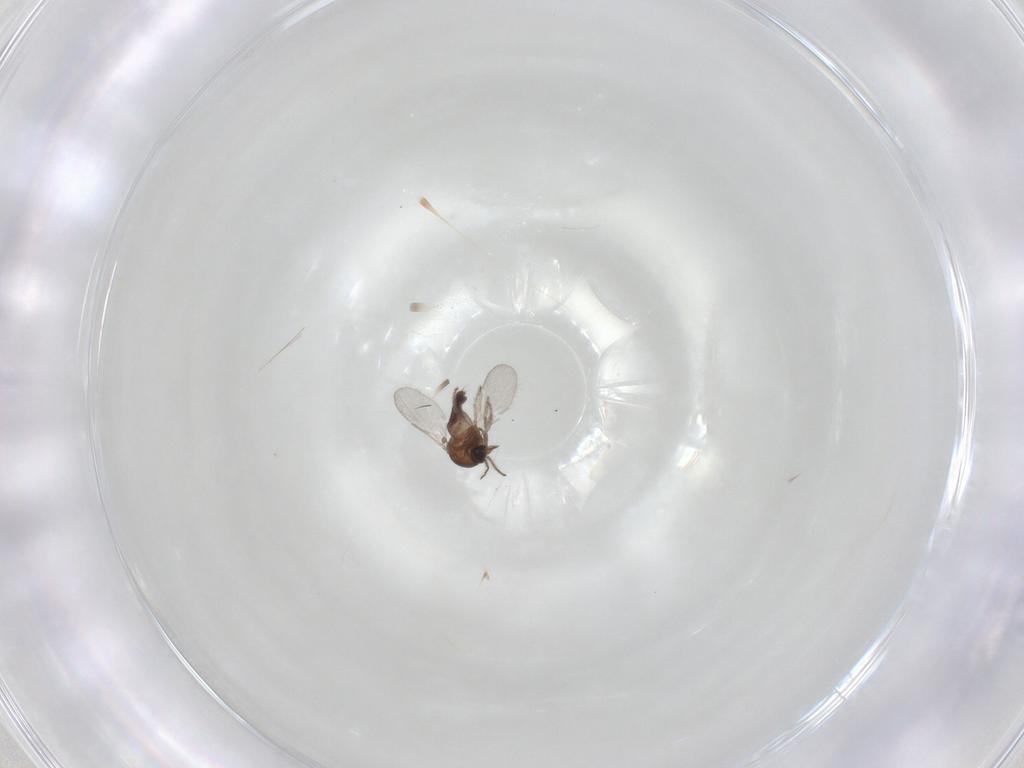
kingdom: Animalia
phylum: Arthropoda
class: Insecta
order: Diptera
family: Ceratopogonidae
